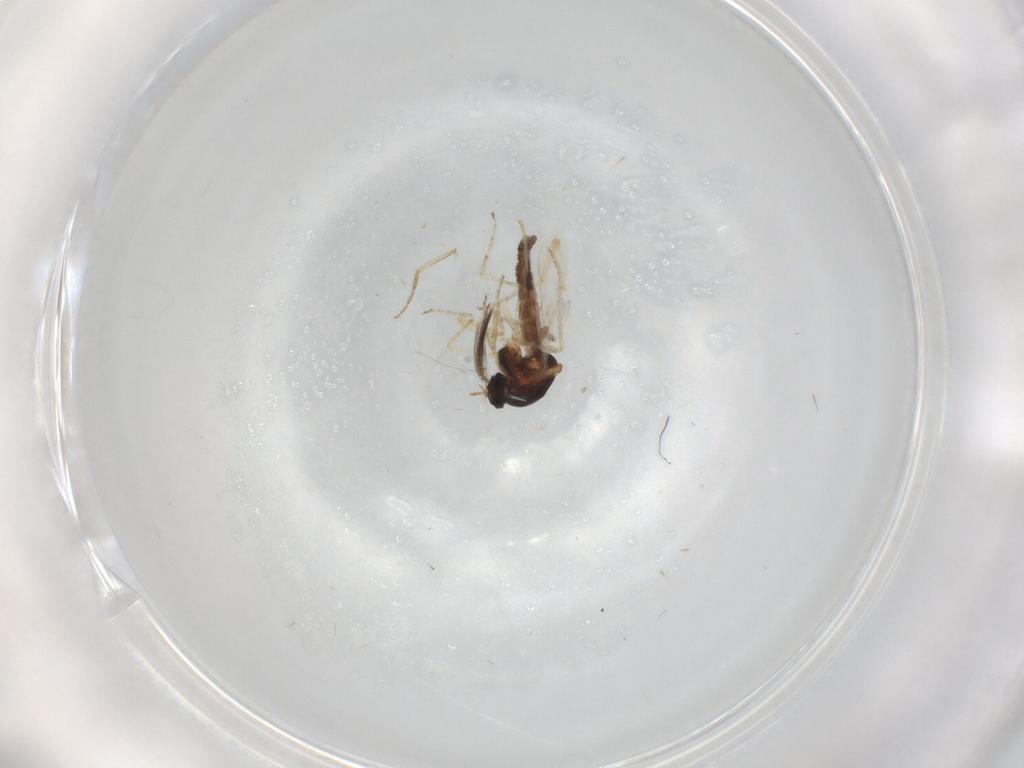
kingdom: Animalia
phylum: Arthropoda
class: Insecta
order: Diptera
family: Ceratopogonidae
